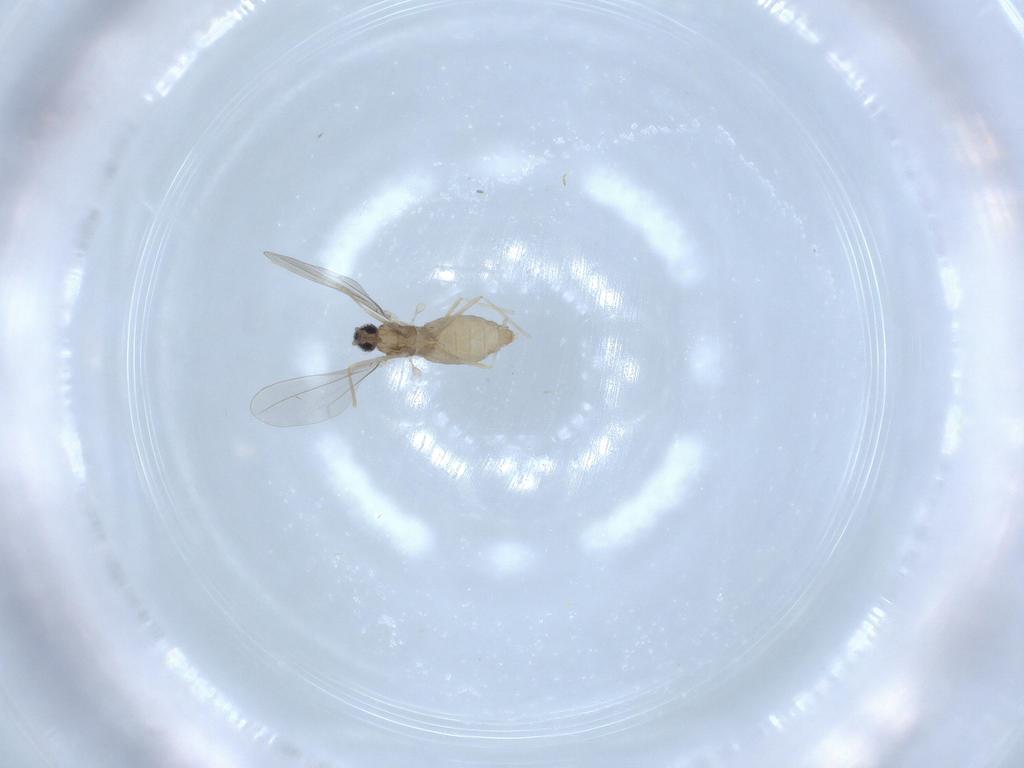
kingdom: Animalia
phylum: Arthropoda
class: Insecta
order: Diptera
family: Cecidomyiidae
